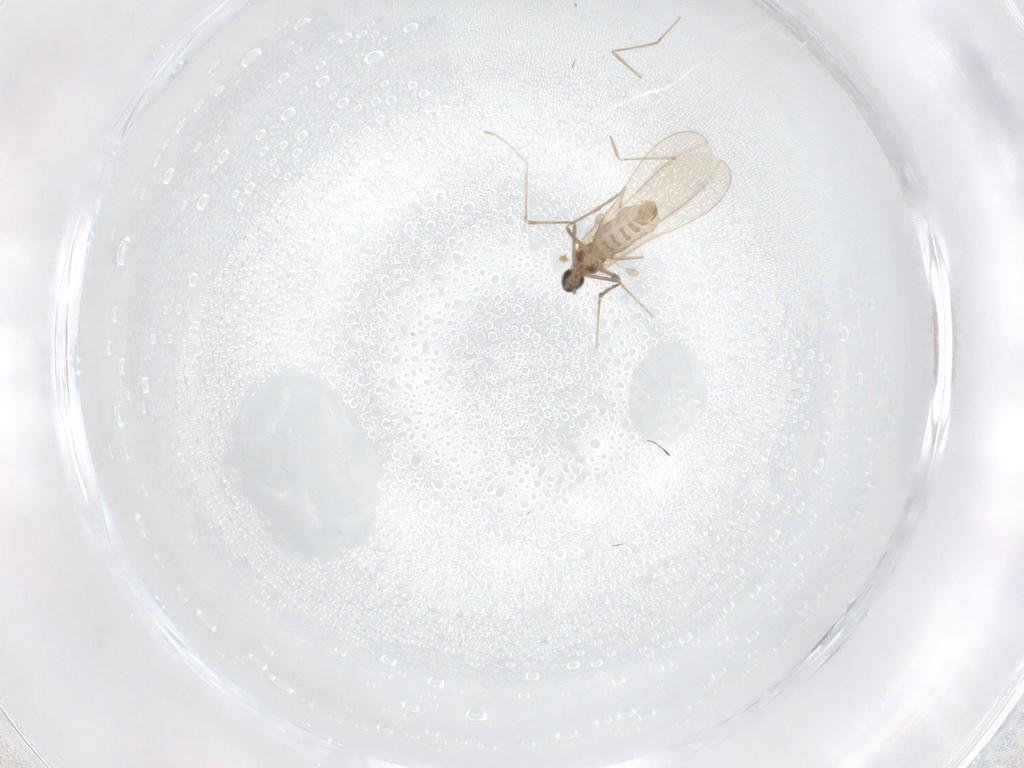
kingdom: Animalia
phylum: Arthropoda
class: Insecta
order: Diptera
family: Cecidomyiidae
